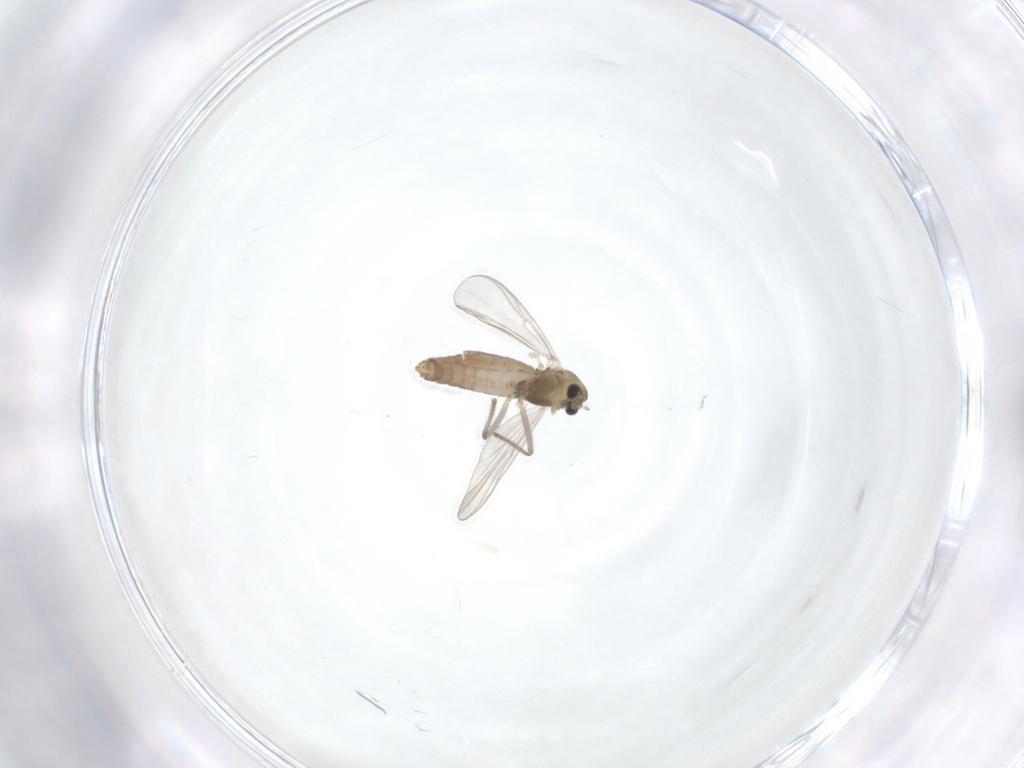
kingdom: Animalia
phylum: Arthropoda
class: Insecta
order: Diptera
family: Chironomidae
